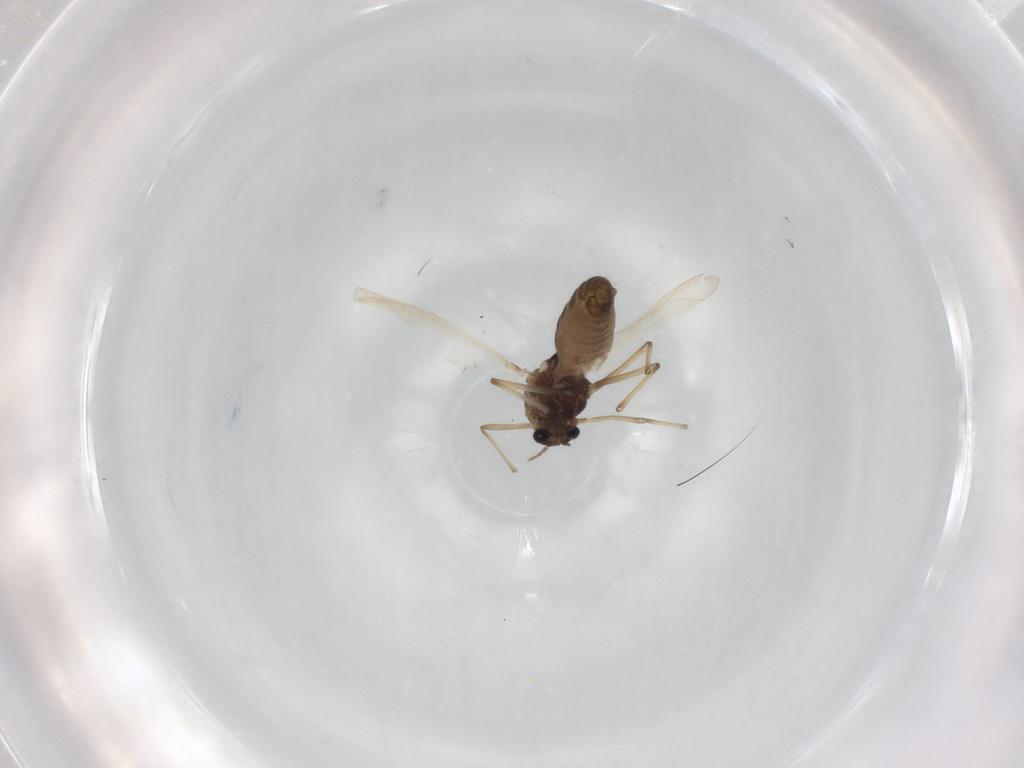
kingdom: Animalia
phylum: Arthropoda
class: Insecta
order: Diptera
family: Chironomidae
